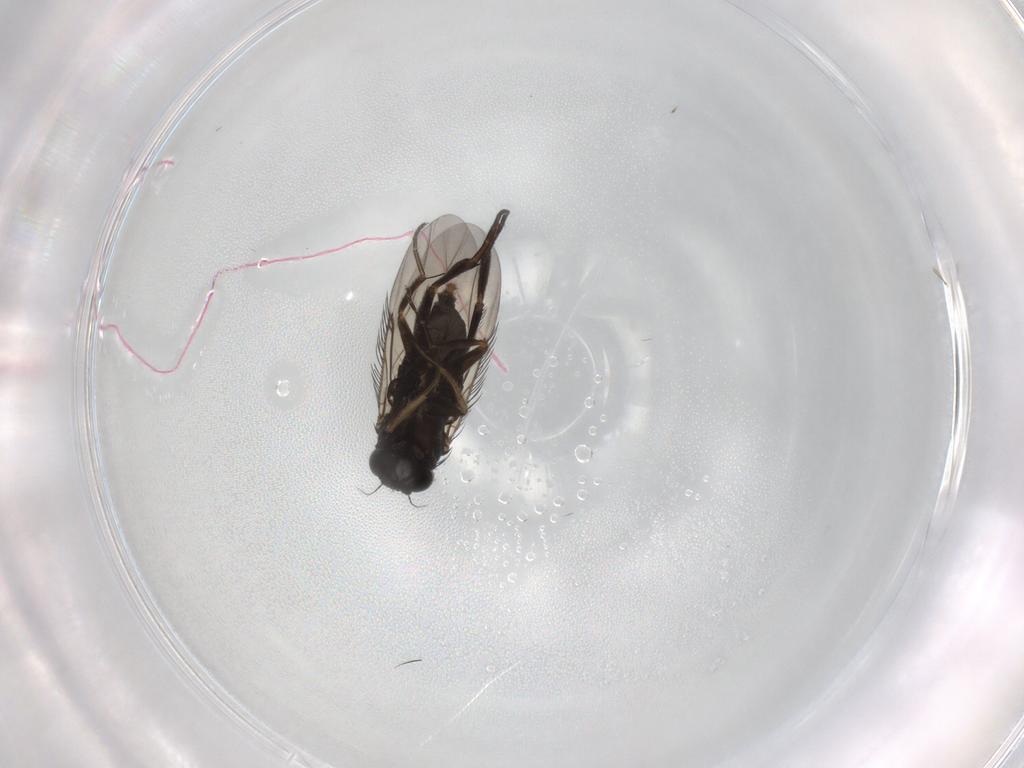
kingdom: Animalia
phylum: Arthropoda
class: Insecta
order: Diptera
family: Phoridae
